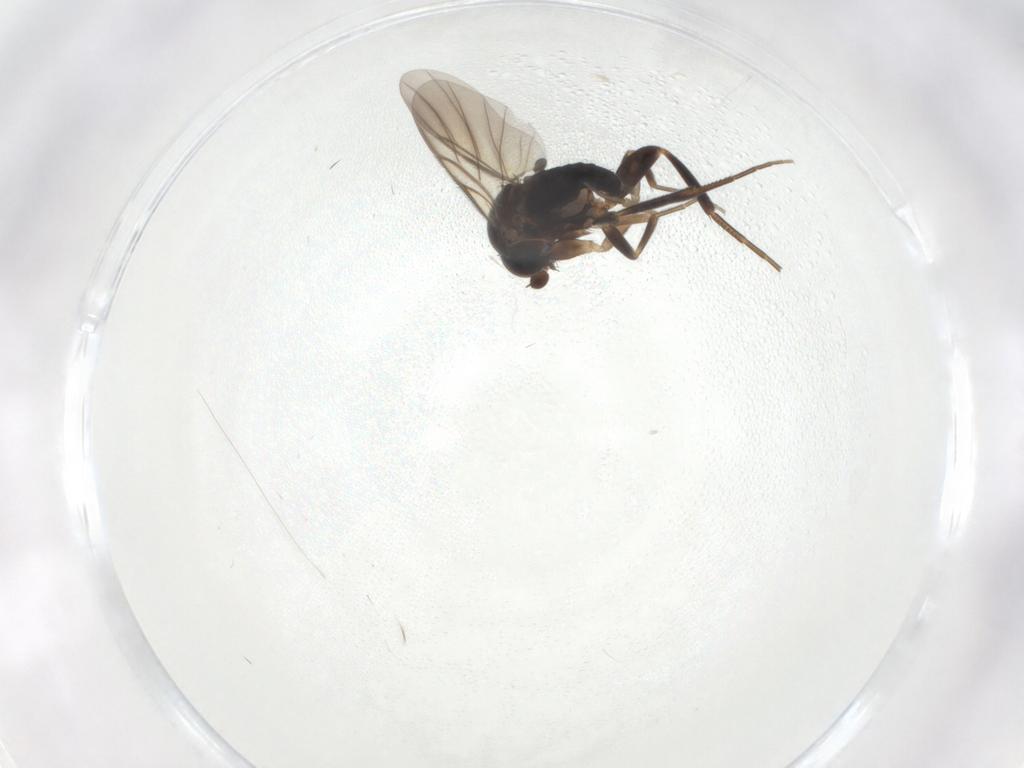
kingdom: Animalia
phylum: Arthropoda
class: Insecta
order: Diptera
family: Phoridae
